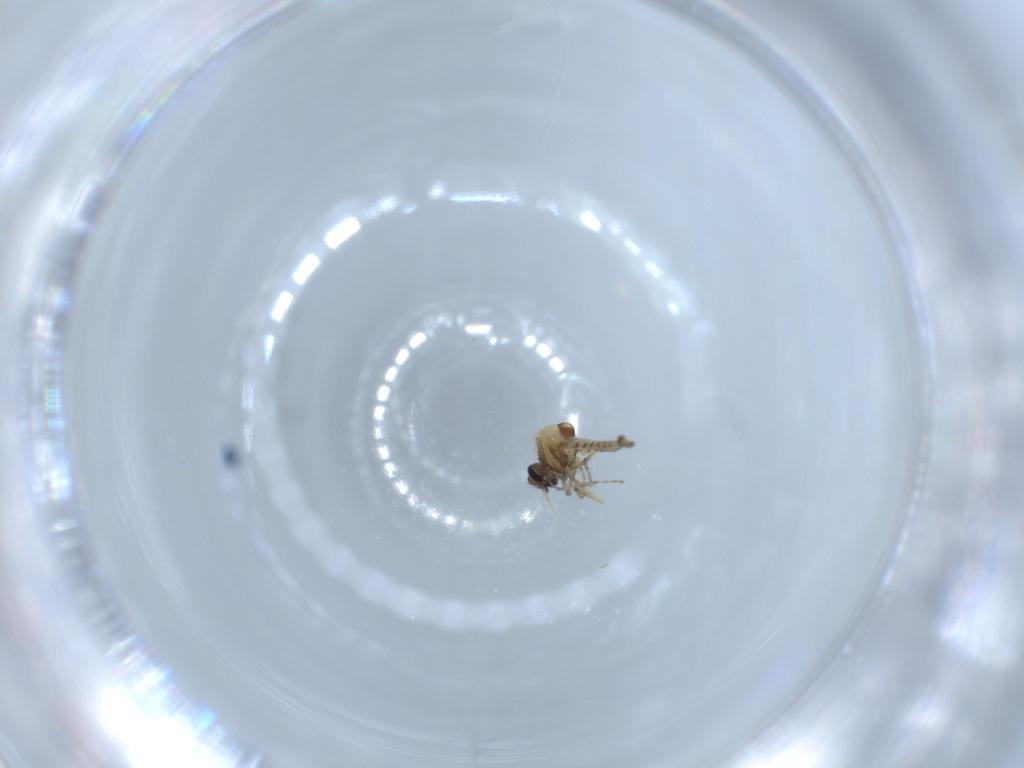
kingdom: Animalia
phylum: Arthropoda
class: Insecta
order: Diptera
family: Ceratopogonidae
